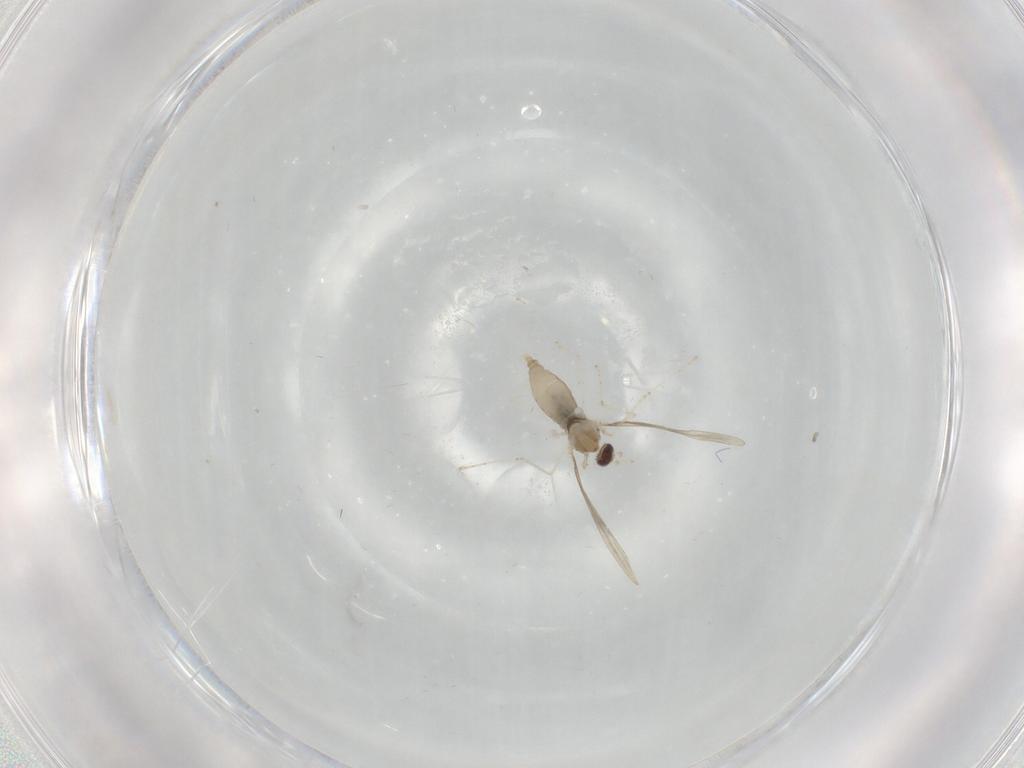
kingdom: Animalia
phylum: Arthropoda
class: Insecta
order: Diptera
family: Cecidomyiidae
